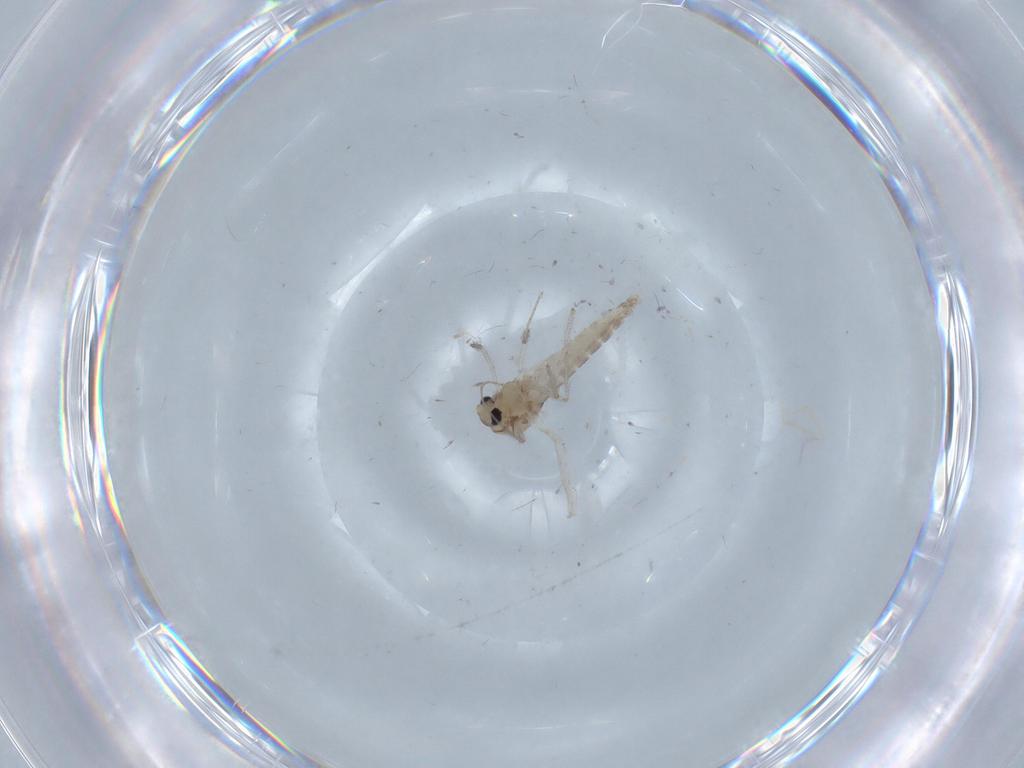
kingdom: Animalia
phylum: Arthropoda
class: Insecta
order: Diptera
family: Chironomidae
